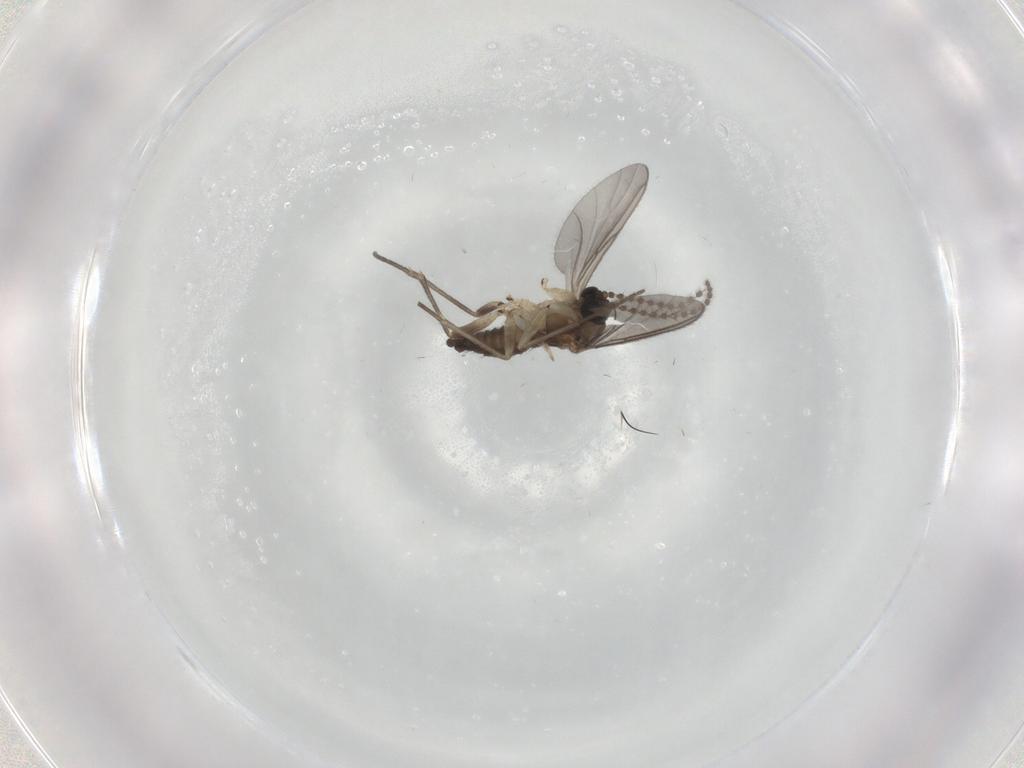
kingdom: Animalia
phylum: Arthropoda
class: Insecta
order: Diptera
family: Sciaridae
